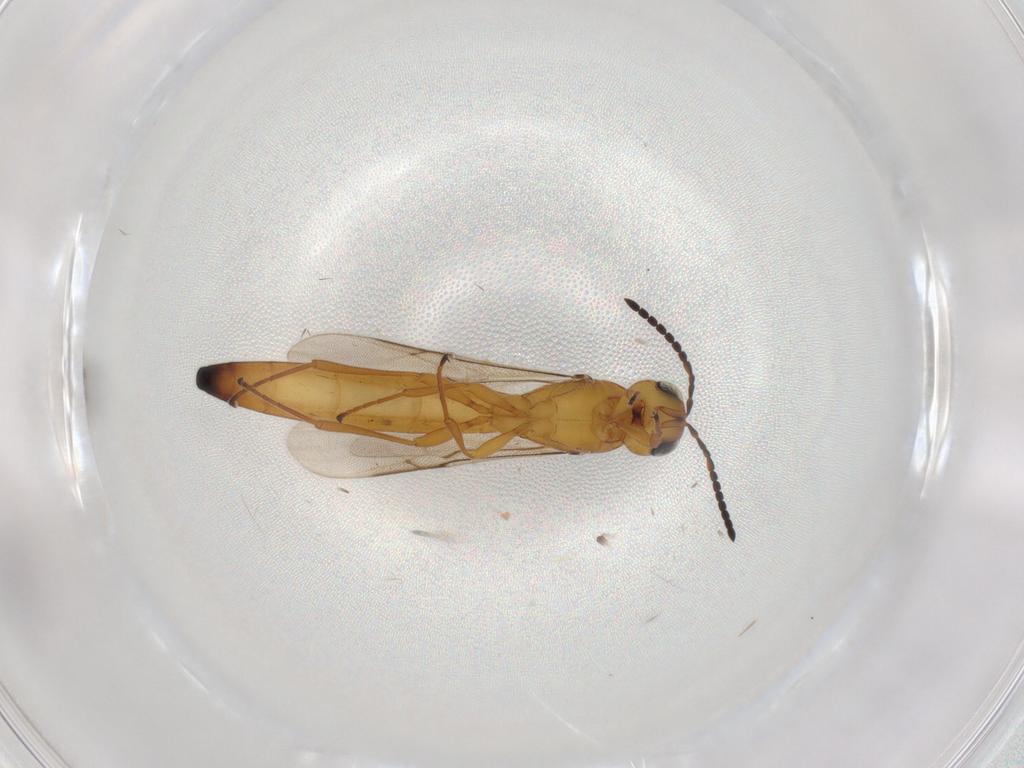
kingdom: Animalia
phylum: Arthropoda
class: Insecta
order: Hymenoptera
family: Scelionidae
